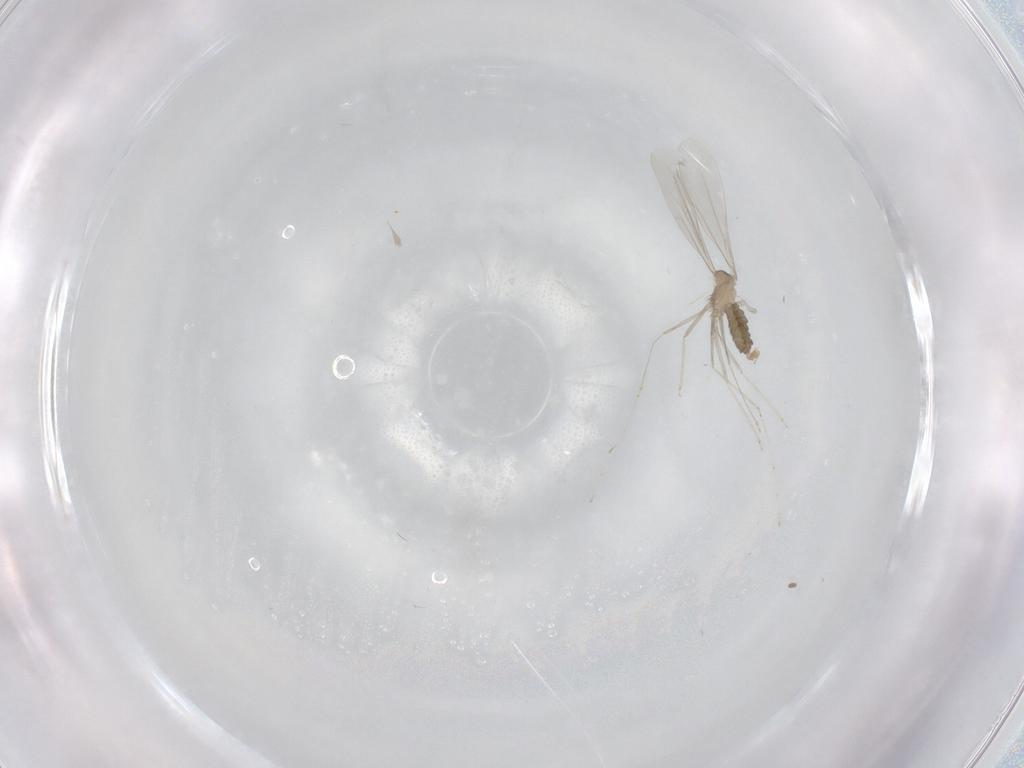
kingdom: Animalia
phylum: Arthropoda
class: Insecta
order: Diptera
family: Cecidomyiidae
